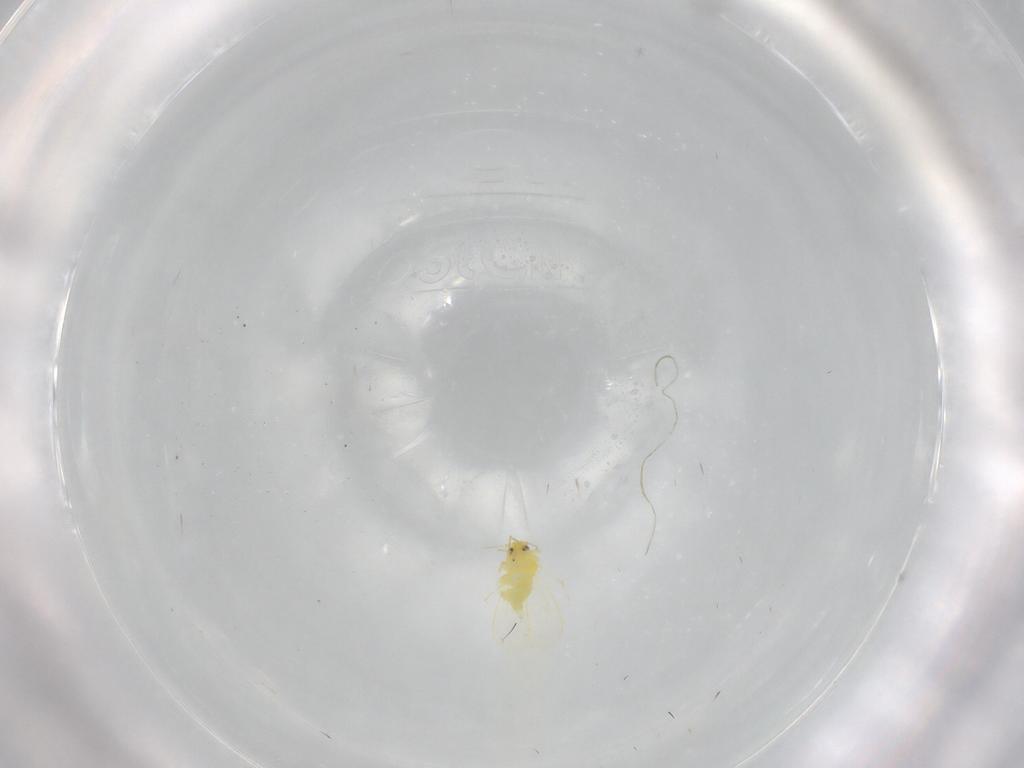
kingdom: Animalia
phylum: Arthropoda
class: Insecta
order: Hemiptera
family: Aleyrodidae
